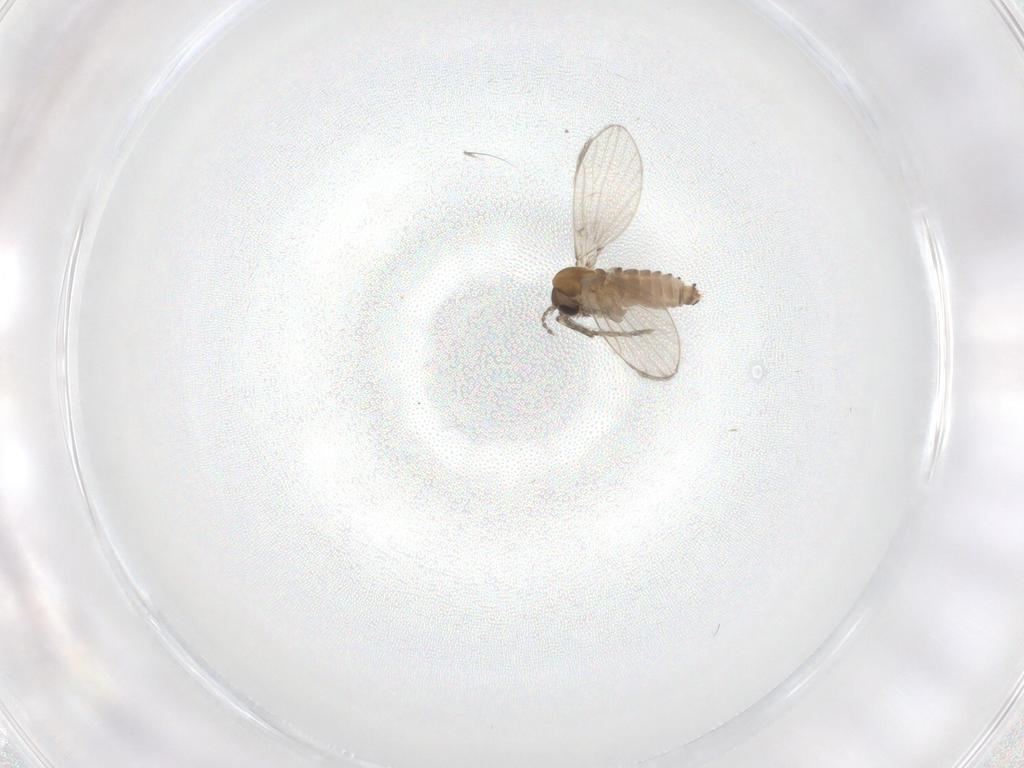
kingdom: Animalia
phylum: Arthropoda
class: Insecta
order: Diptera
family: Ceratopogonidae
